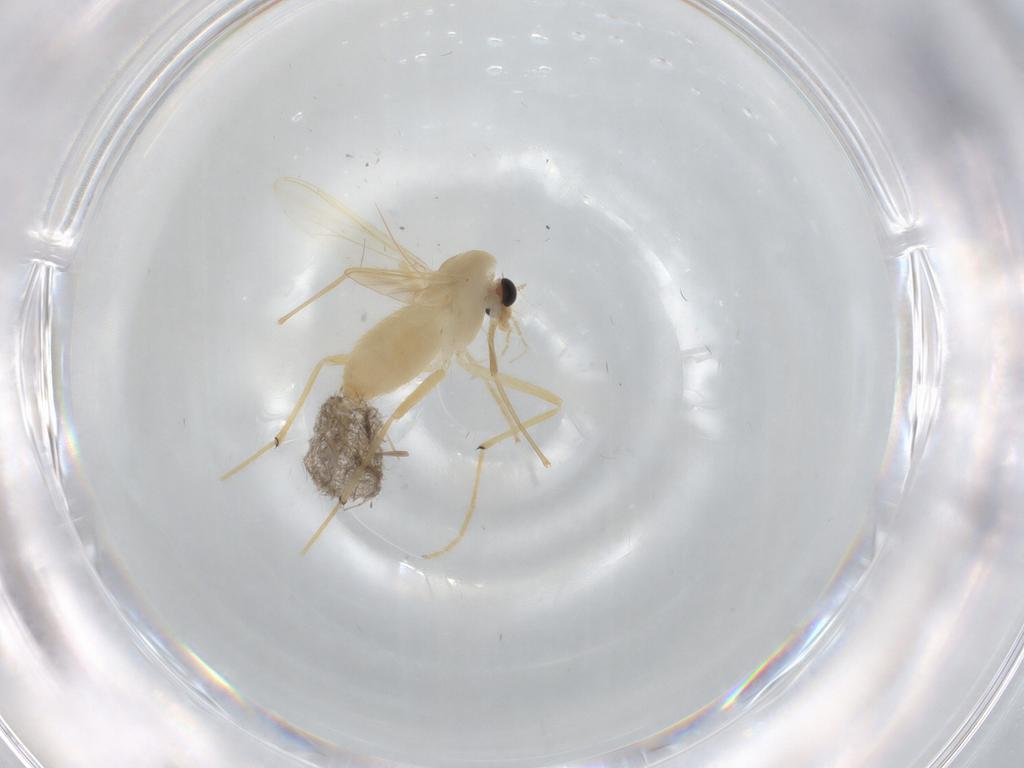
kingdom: Animalia
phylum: Arthropoda
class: Insecta
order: Diptera
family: Chironomidae
